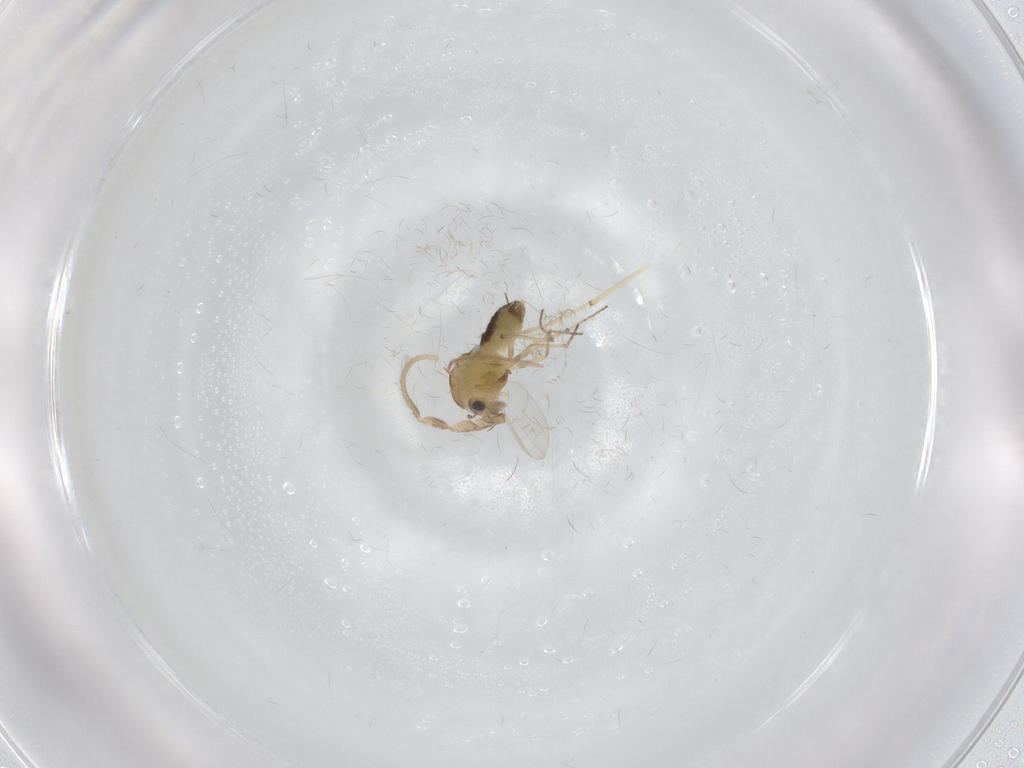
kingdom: Animalia
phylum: Arthropoda
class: Insecta
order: Diptera
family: Chironomidae
